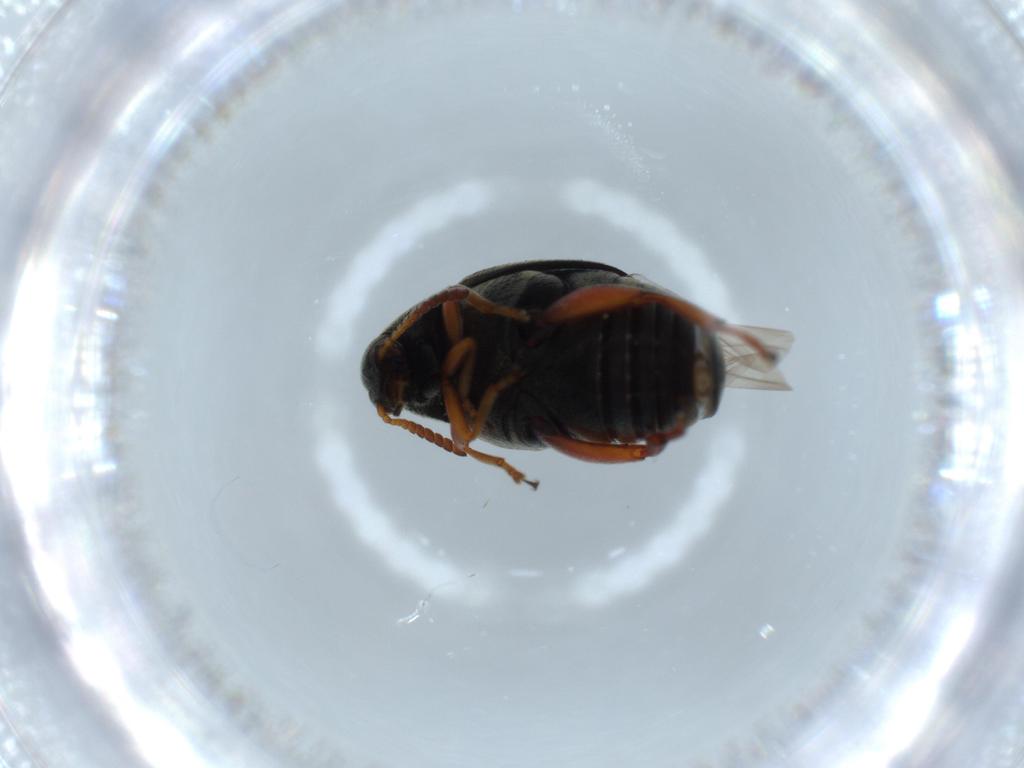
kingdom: Animalia
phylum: Arthropoda
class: Insecta
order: Coleoptera
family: Chrysomelidae
